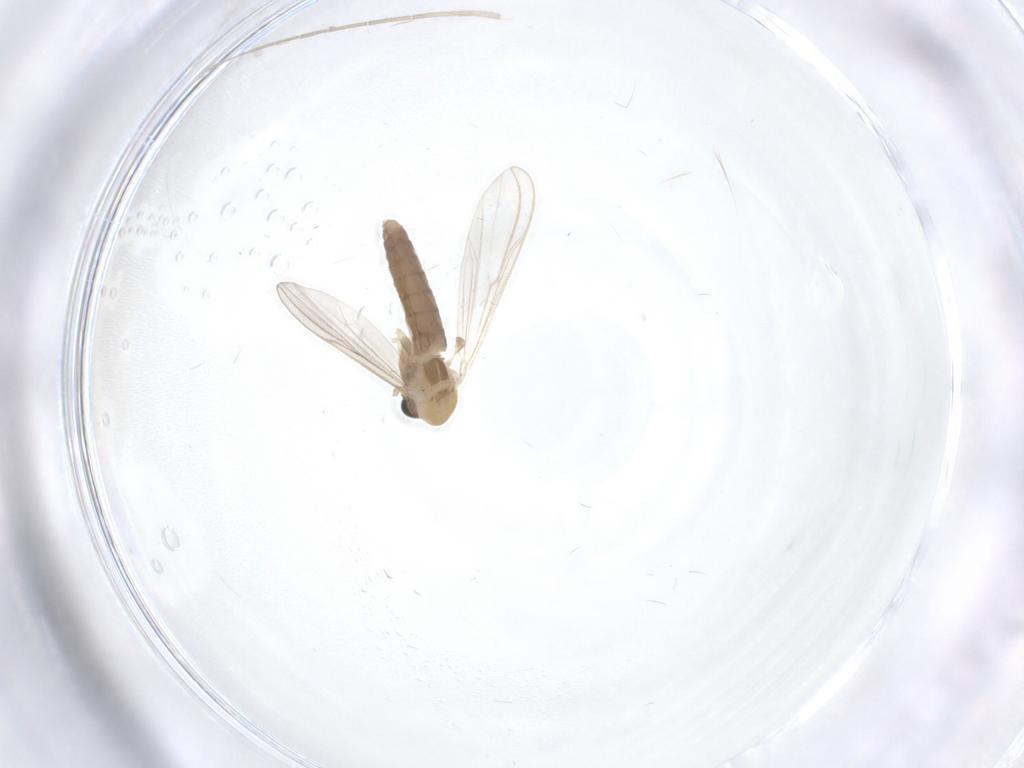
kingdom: Animalia
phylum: Arthropoda
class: Insecta
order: Diptera
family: Chironomidae
